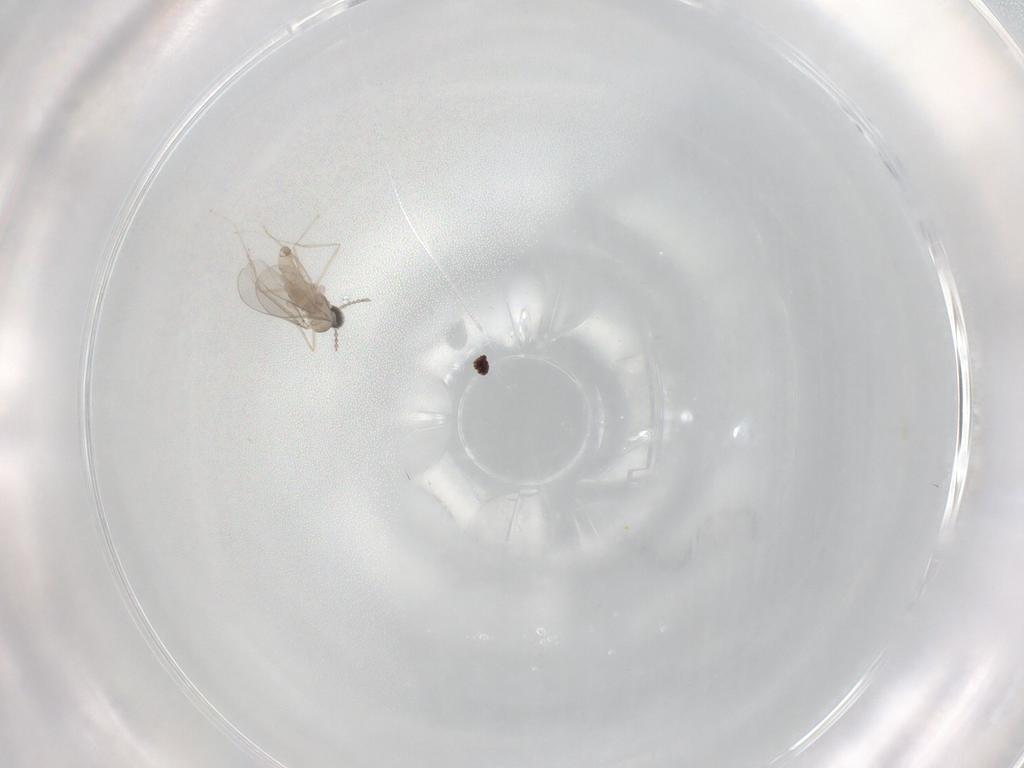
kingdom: Animalia
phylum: Arthropoda
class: Insecta
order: Diptera
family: Cecidomyiidae
